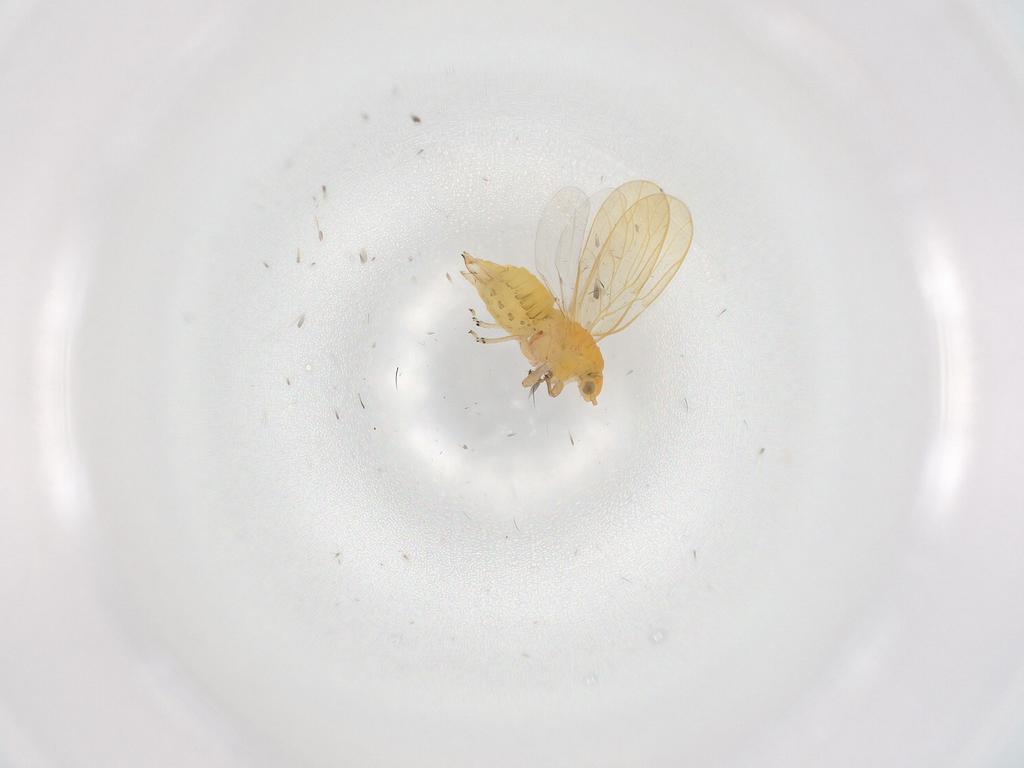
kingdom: Animalia
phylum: Arthropoda
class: Insecta
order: Hemiptera
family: Psyllidae
